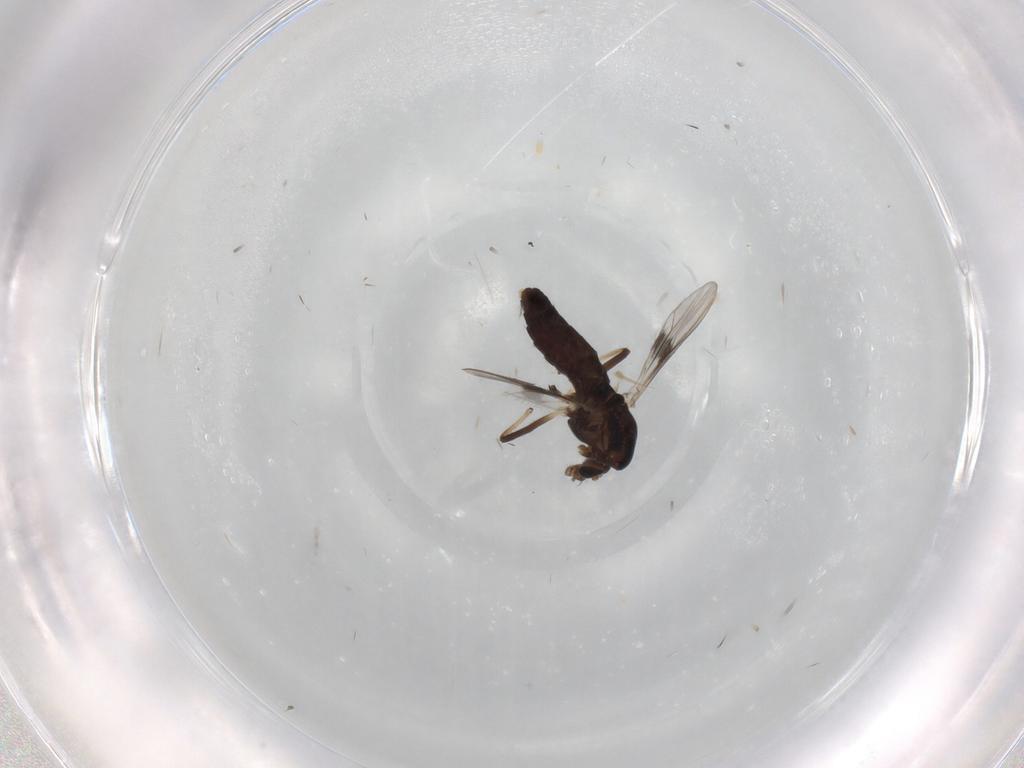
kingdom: Animalia
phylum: Arthropoda
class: Insecta
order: Diptera
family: Chironomidae
